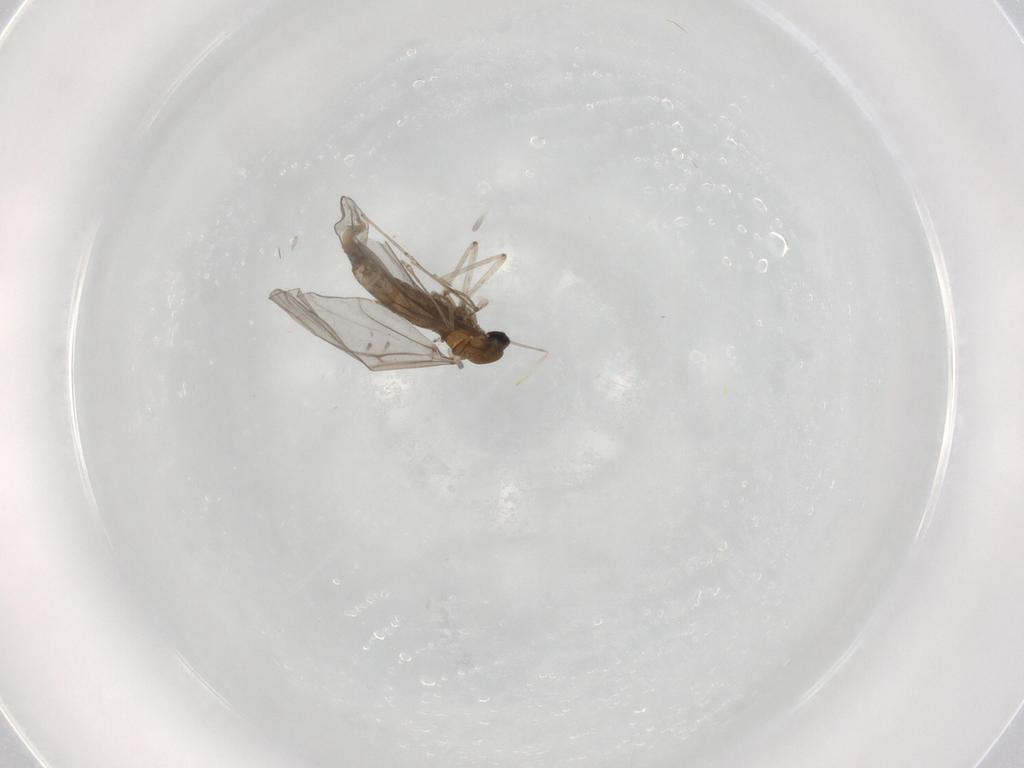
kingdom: Animalia
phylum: Arthropoda
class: Insecta
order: Diptera
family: Cecidomyiidae
